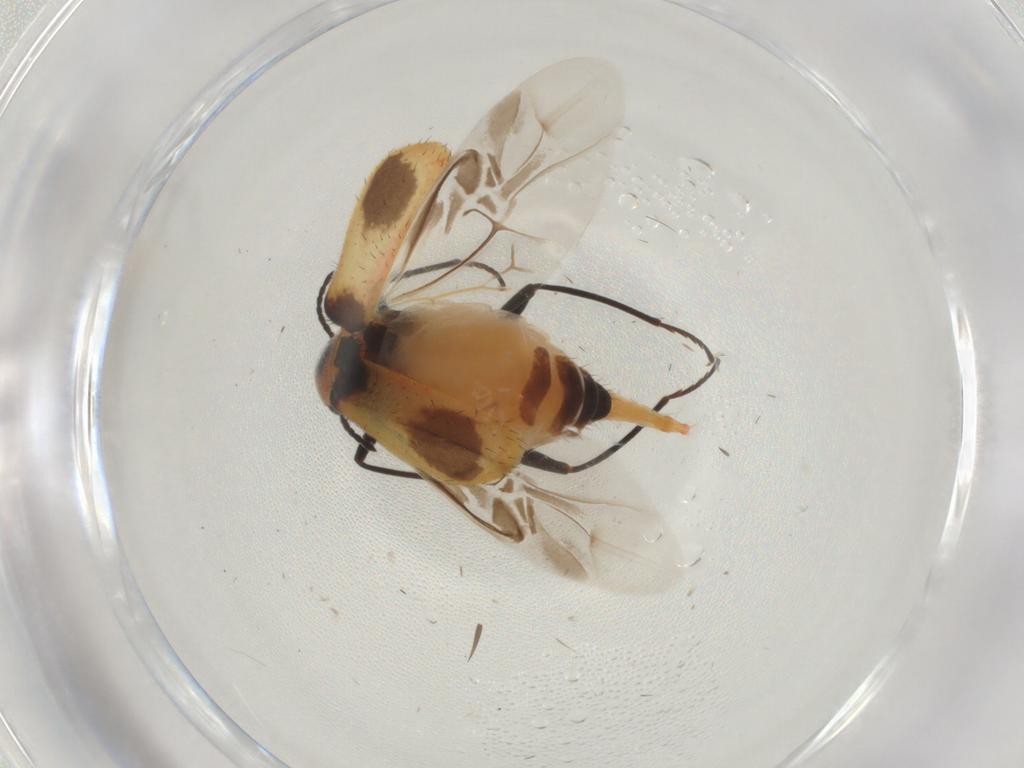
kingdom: Animalia
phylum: Arthropoda
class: Insecta
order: Coleoptera
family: Melyridae
